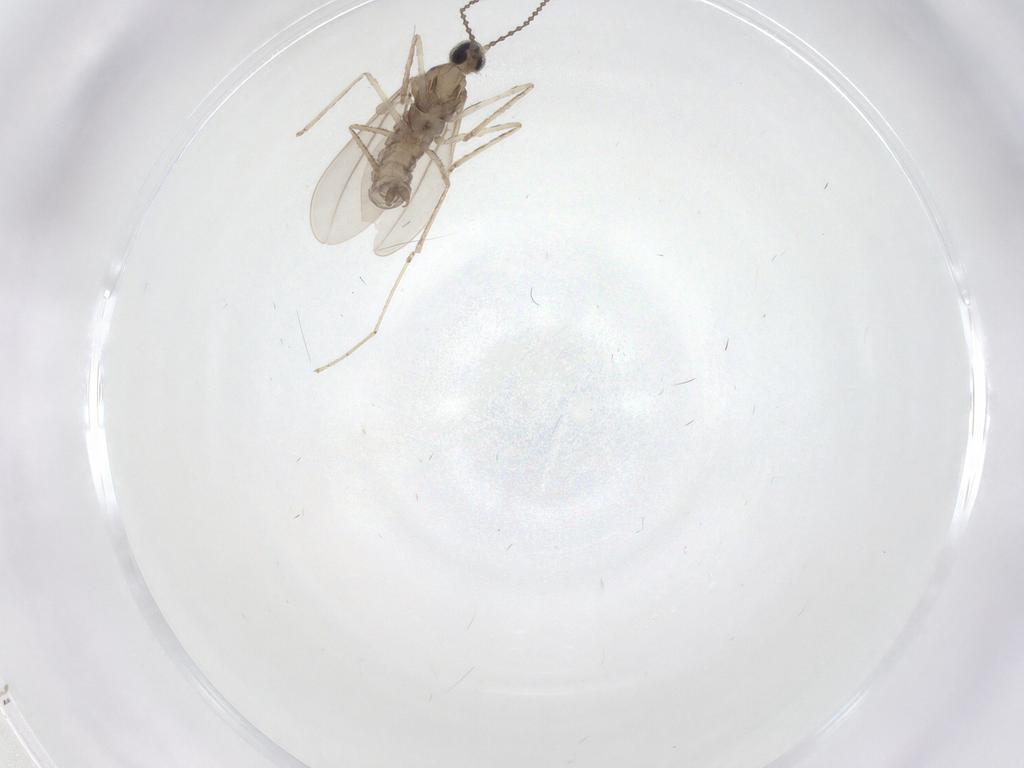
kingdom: Animalia
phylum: Arthropoda
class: Insecta
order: Diptera
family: Cecidomyiidae
